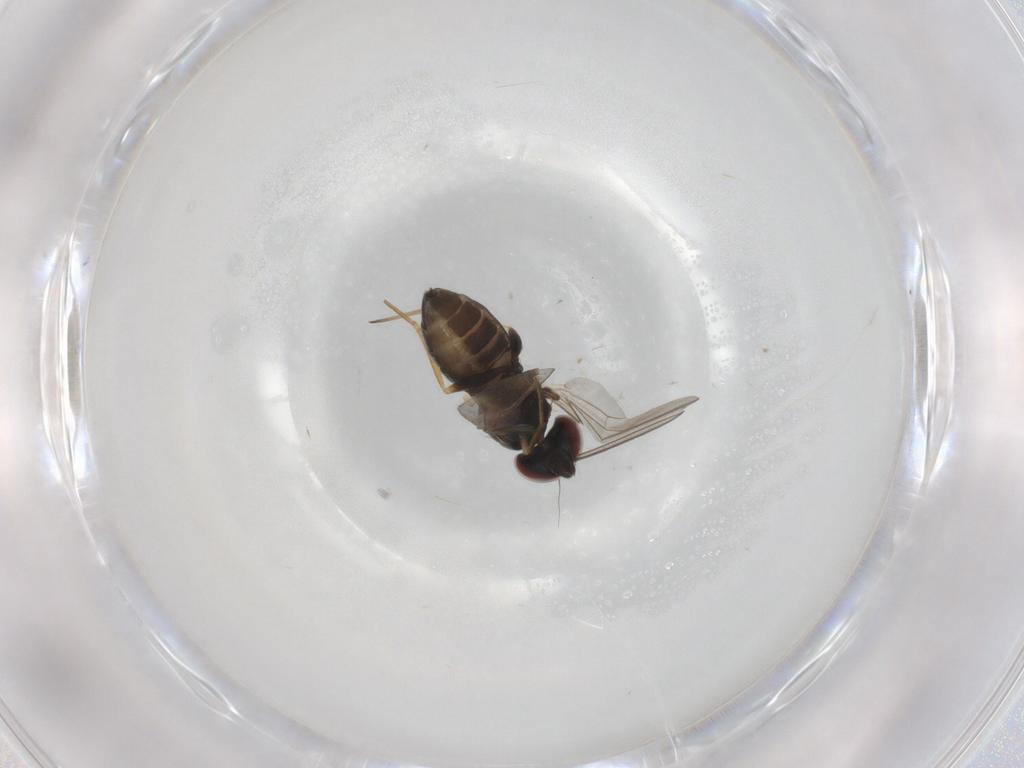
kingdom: Animalia
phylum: Arthropoda
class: Insecta
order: Diptera
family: Dolichopodidae
